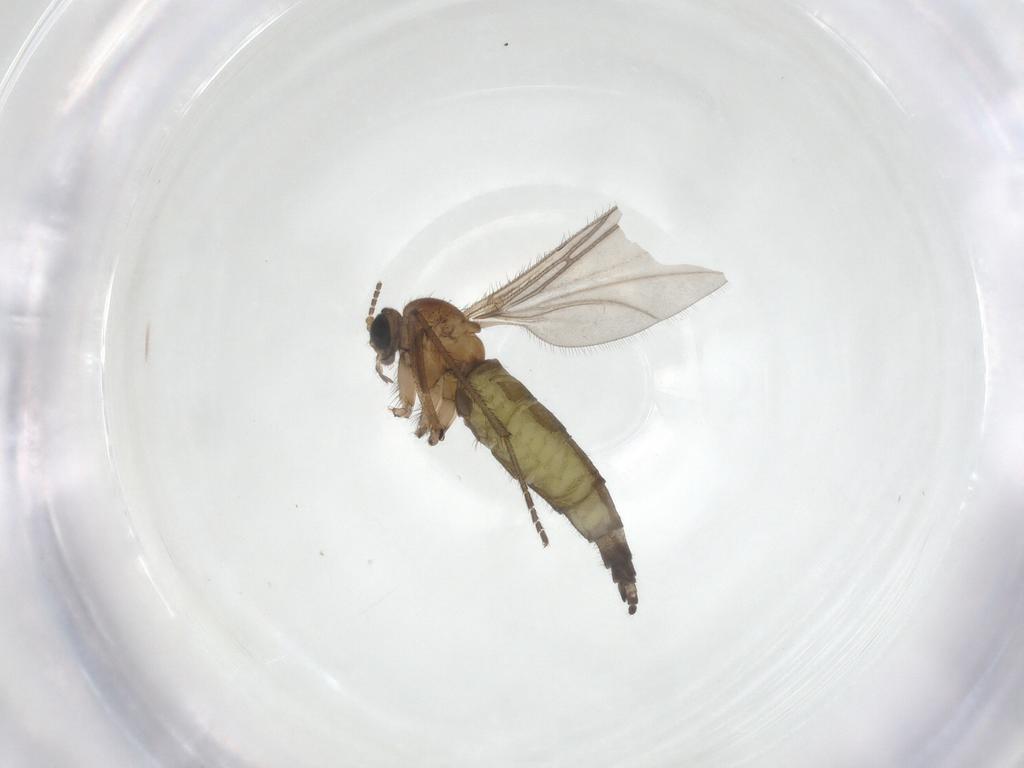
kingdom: Animalia
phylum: Arthropoda
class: Insecta
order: Diptera
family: Sciaridae
